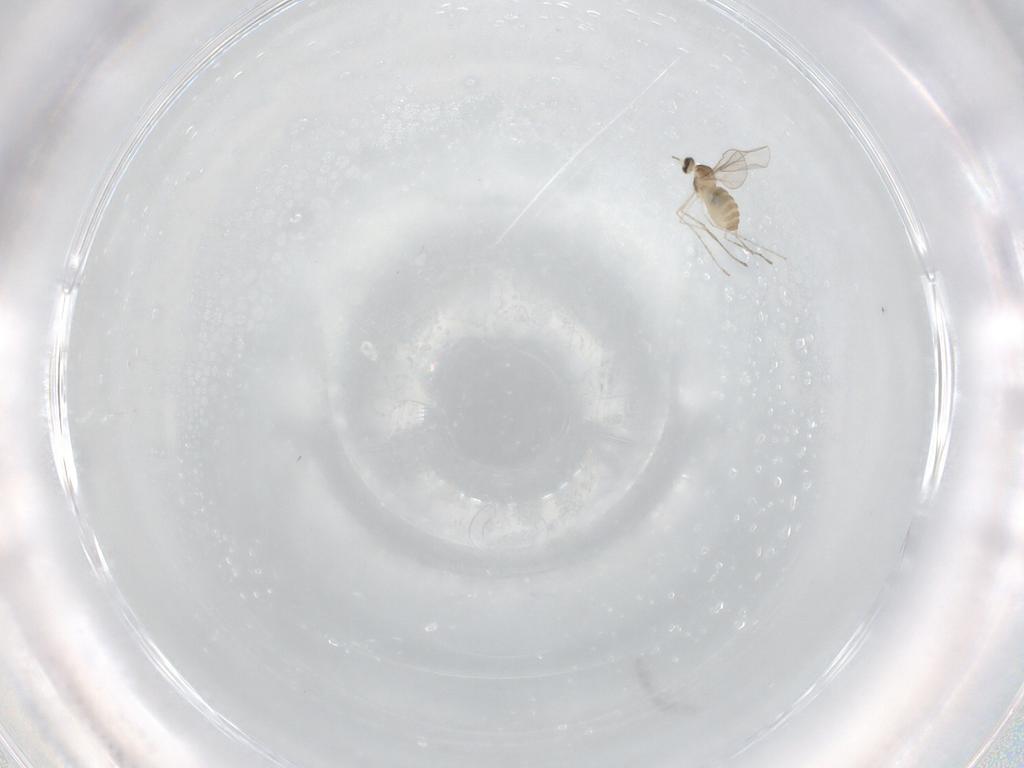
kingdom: Animalia
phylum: Arthropoda
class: Insecta
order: Diptera
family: Cecidomyiidae
